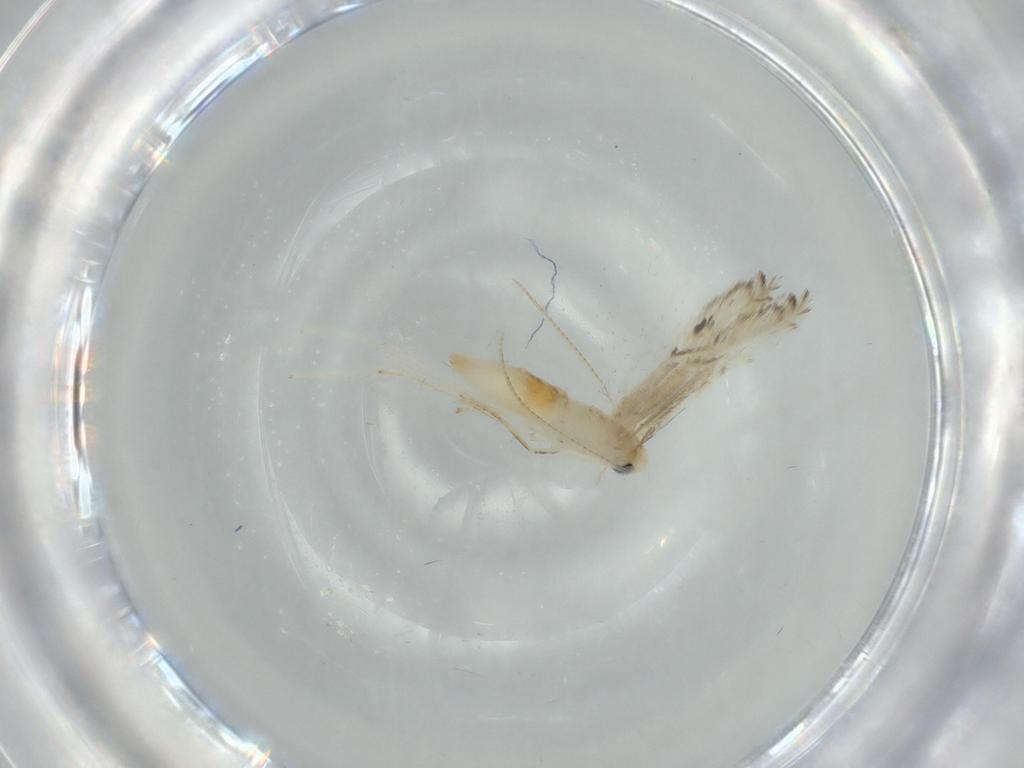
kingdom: Animalia
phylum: Arthropoda
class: Insecta
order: Lepidoptera
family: Gracillariidae
